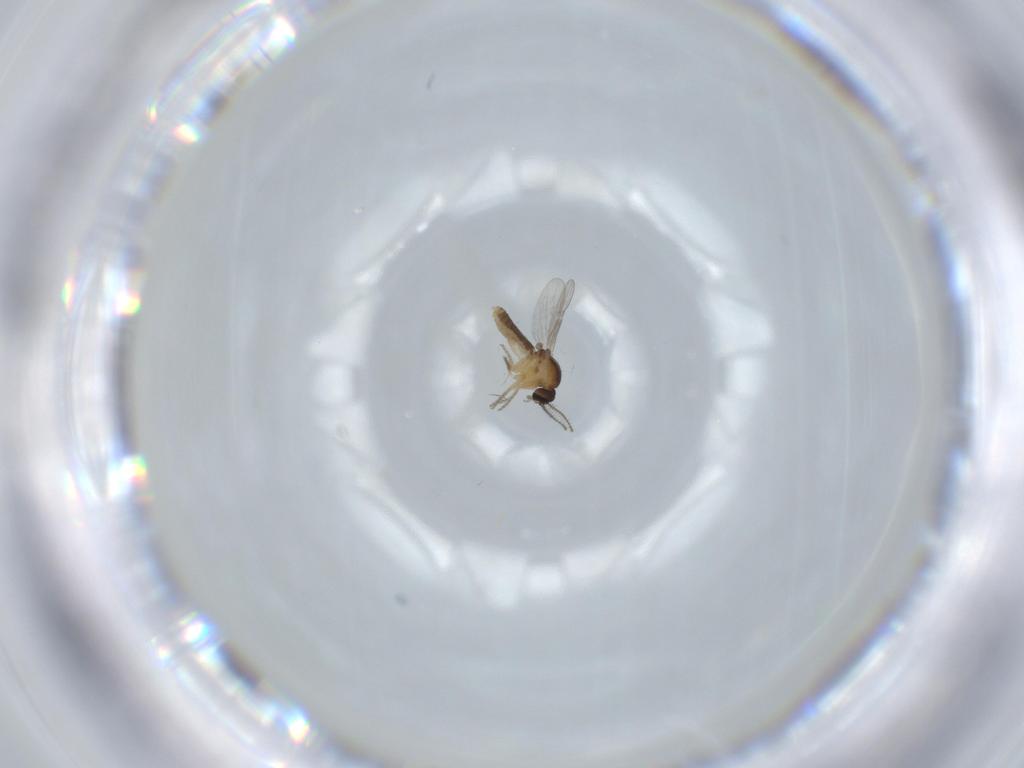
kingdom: Animalia
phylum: Arthropoda
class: Insecta
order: Diptera
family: Ceratopogonidae
